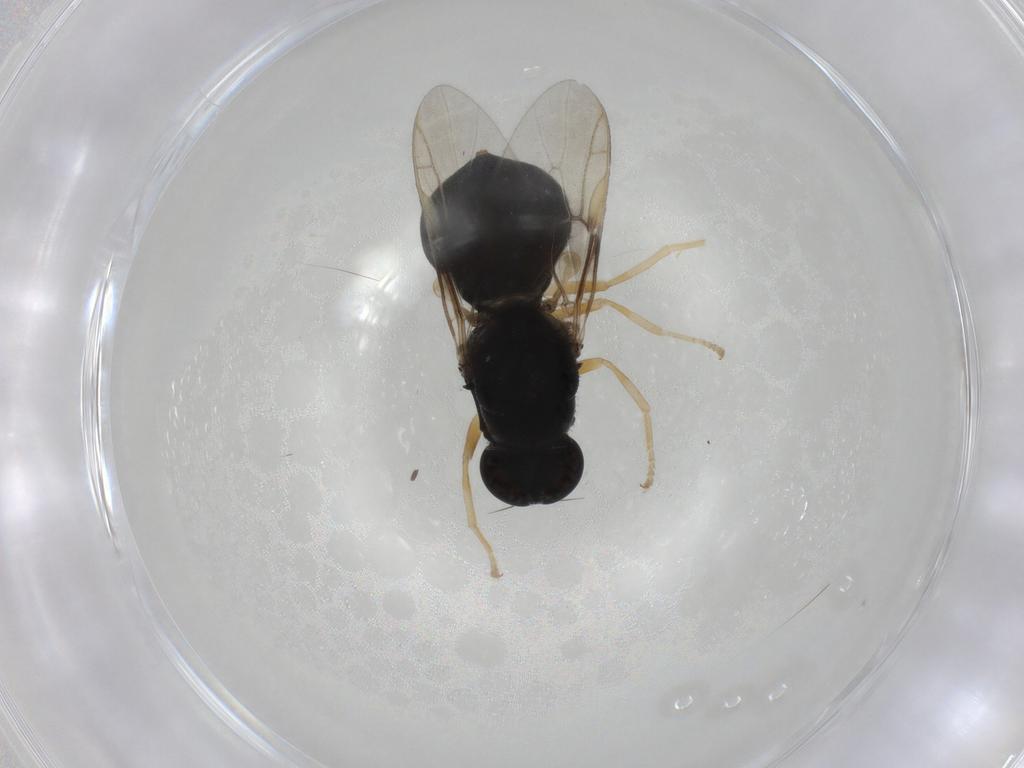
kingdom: Animalia
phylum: Arthropoda
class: Insecta
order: Diptera
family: Stratiomyidae
